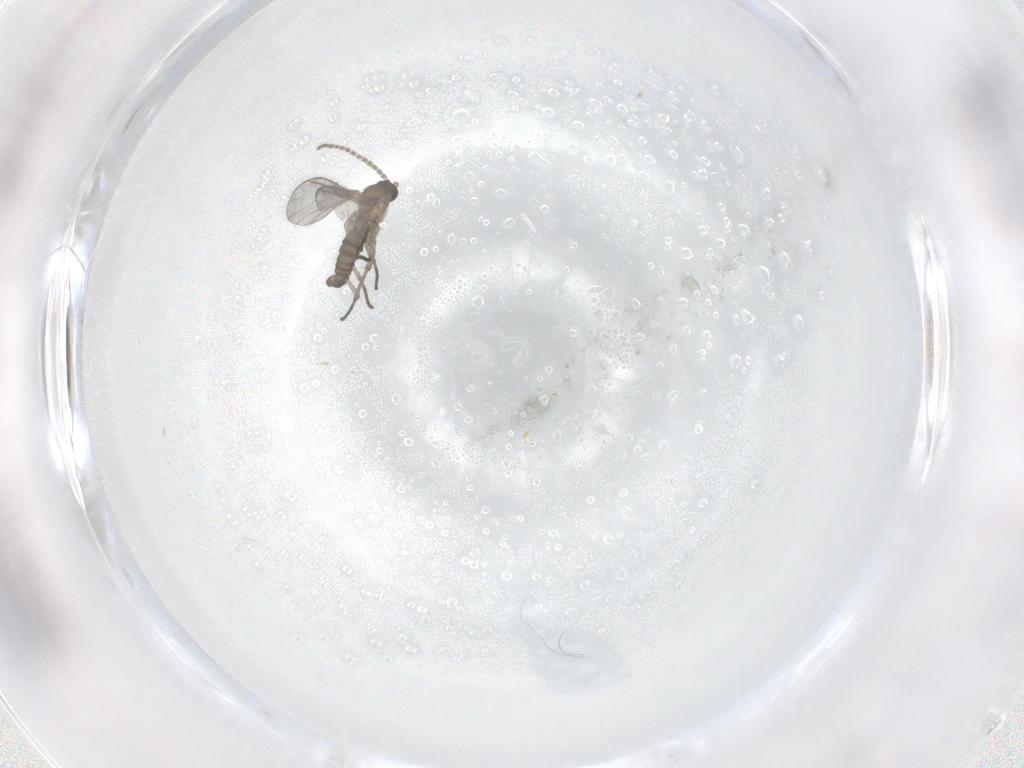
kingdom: Animalia
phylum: Arthropoda
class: Insecta
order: Diptera
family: Sciaridae
